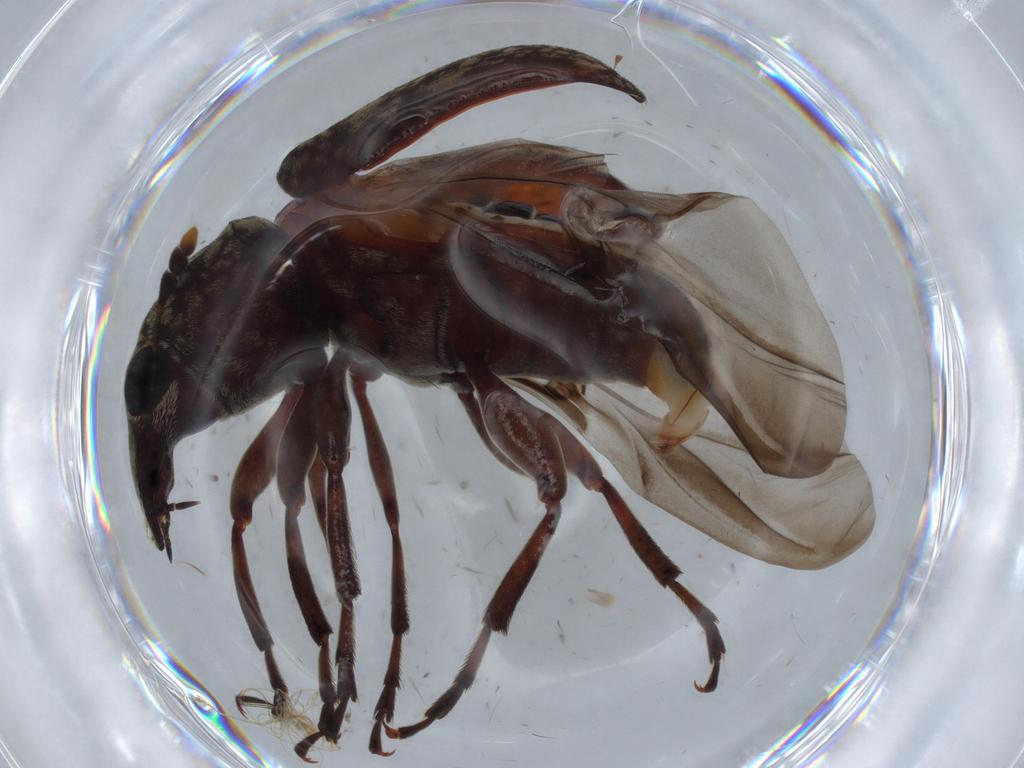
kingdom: Animalia
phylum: Arthropoda
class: Insecta
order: Coleoptera
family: Anthribidae
